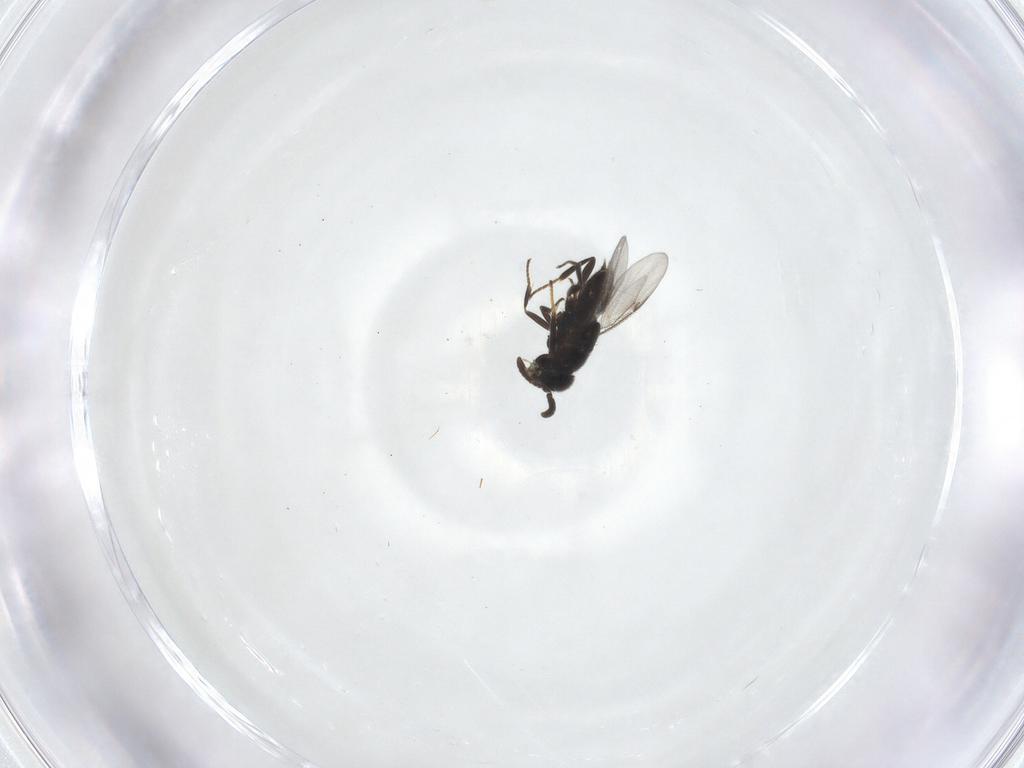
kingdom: Animalia
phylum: Arthropoda
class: Insecta
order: Hymenoptera
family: Encyrtidae
